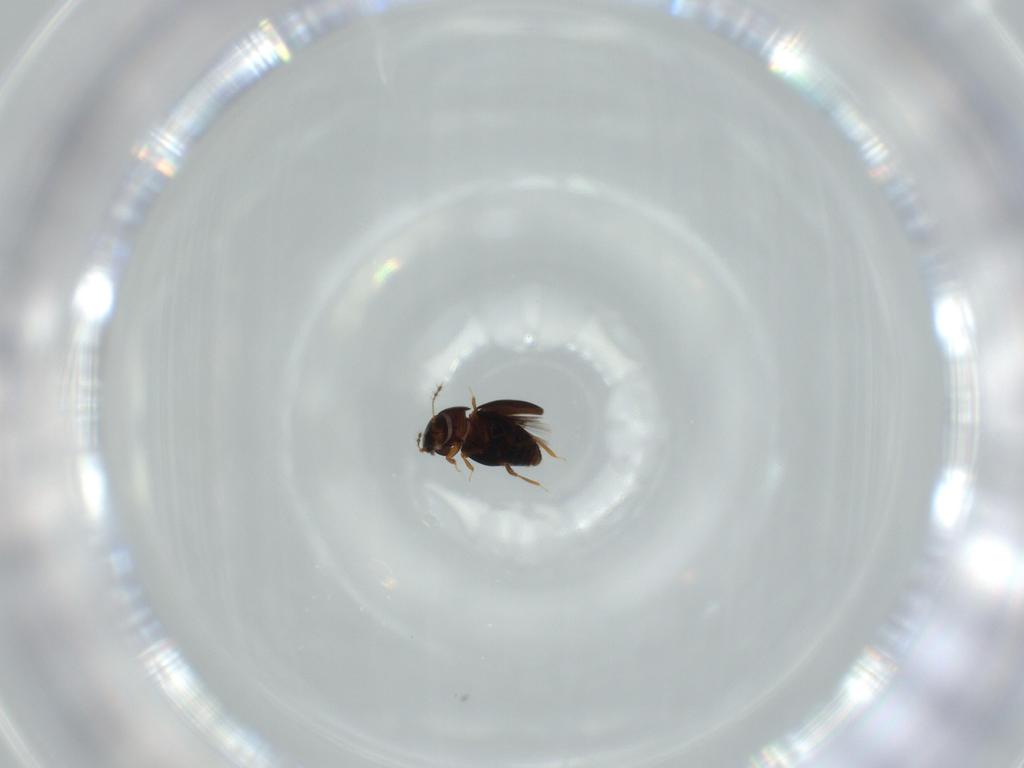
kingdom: Animalia
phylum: Arthropoda
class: Insecta
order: Coleoptera
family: Ptiliidae
